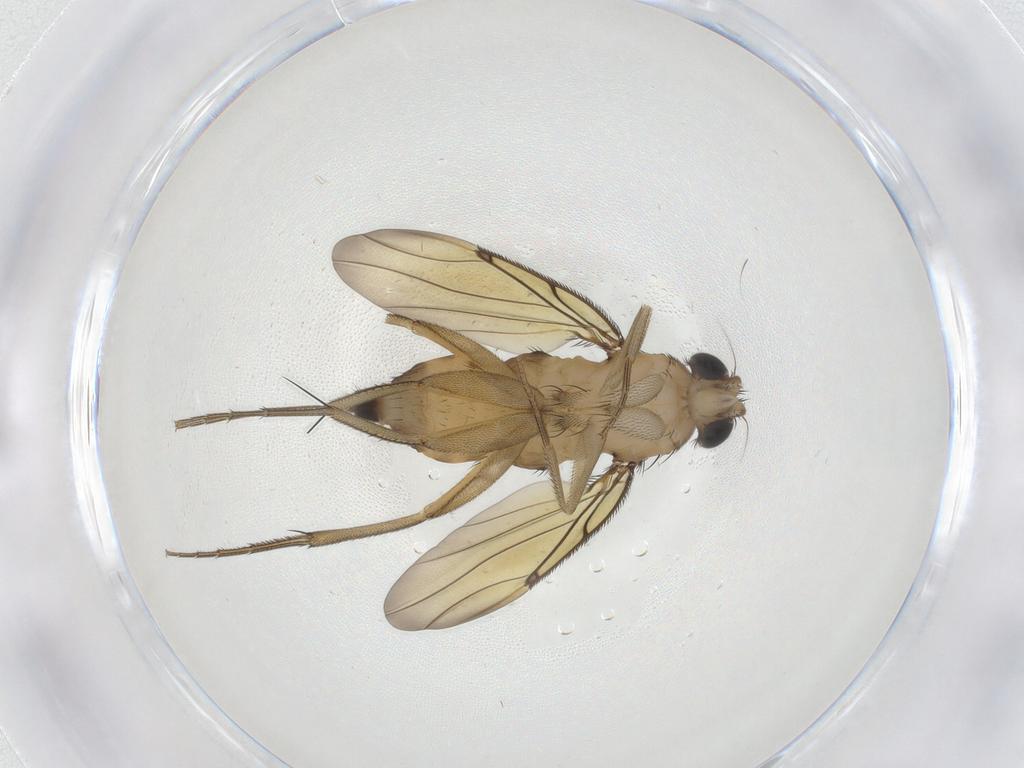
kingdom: Animalia
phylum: Arthropoda
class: Insecta
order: Diptera
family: Phoridae
